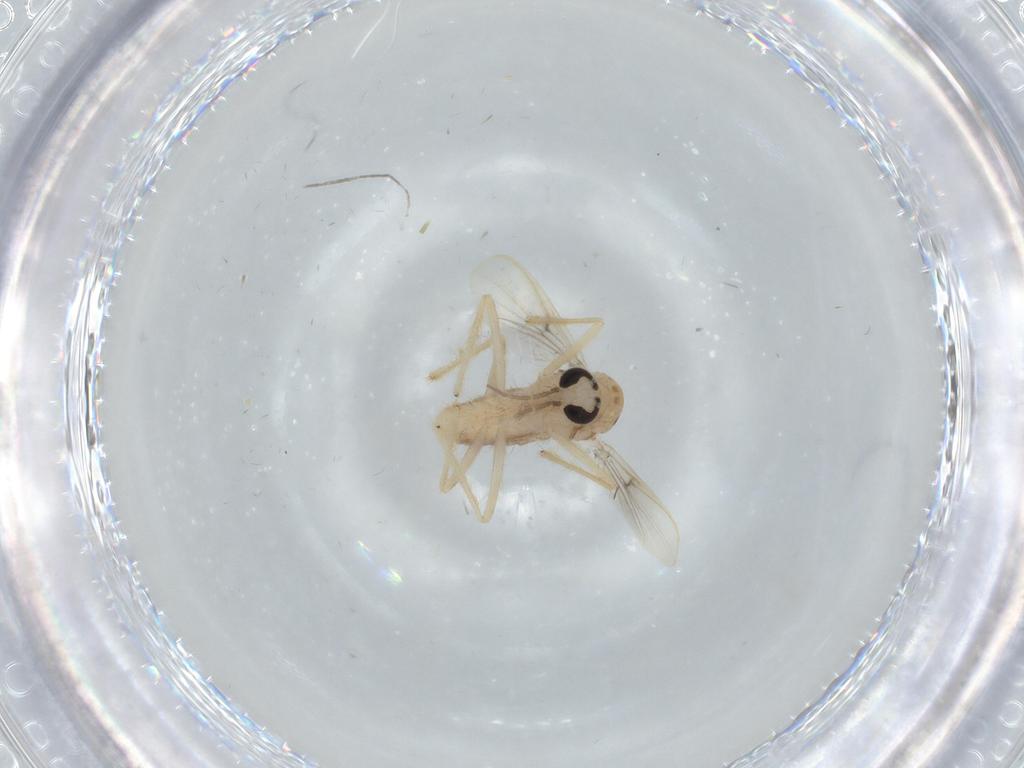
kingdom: Animalia
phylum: Arthropoda
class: Insecta
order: Diptera
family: Chironomidae
